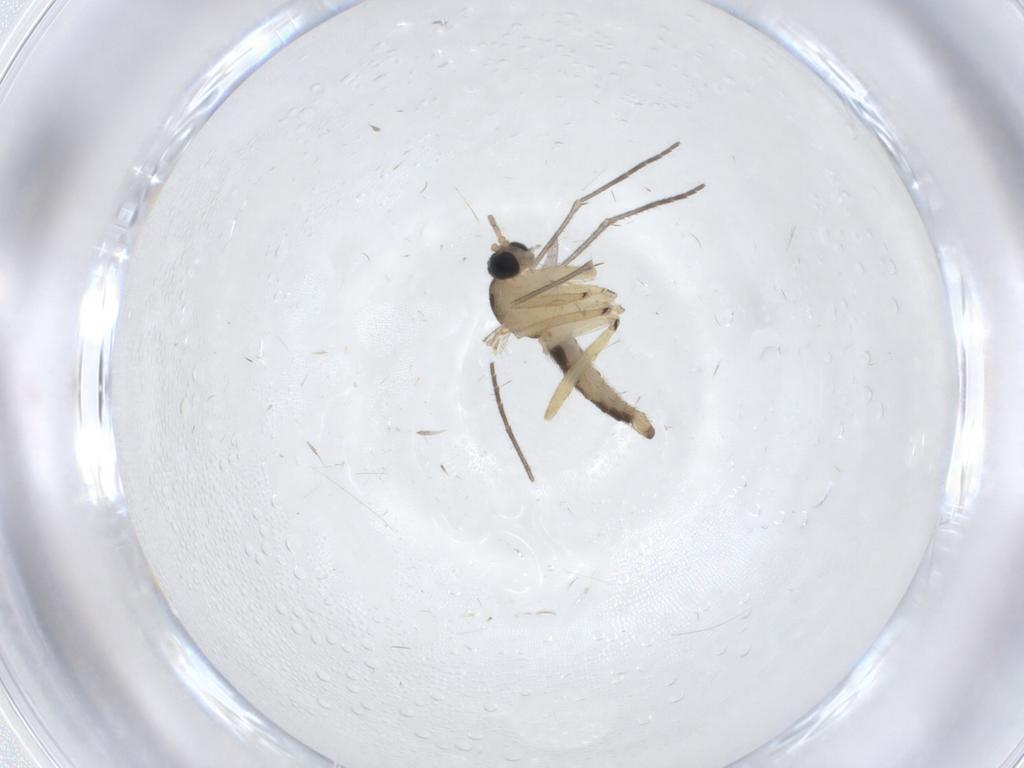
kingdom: Animalia
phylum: Arthropoda
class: Insecta
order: Diptera
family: Sciaridae
